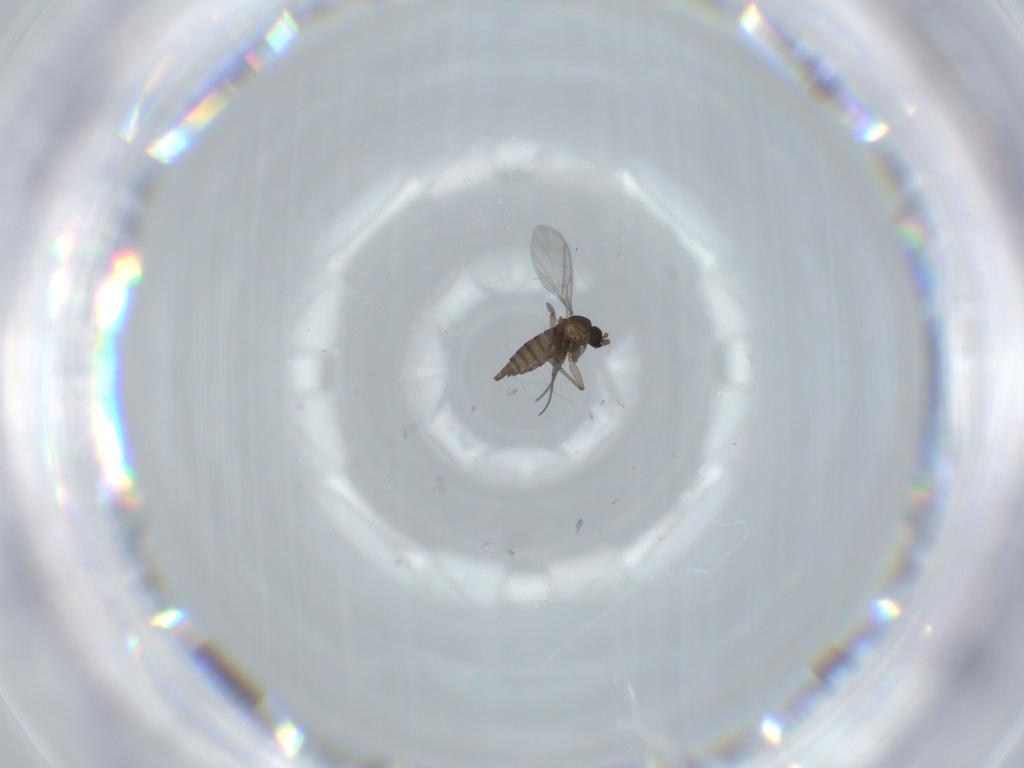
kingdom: Animalia
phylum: Arthropoda
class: Insecta
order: Diptera
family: Sciaridae
